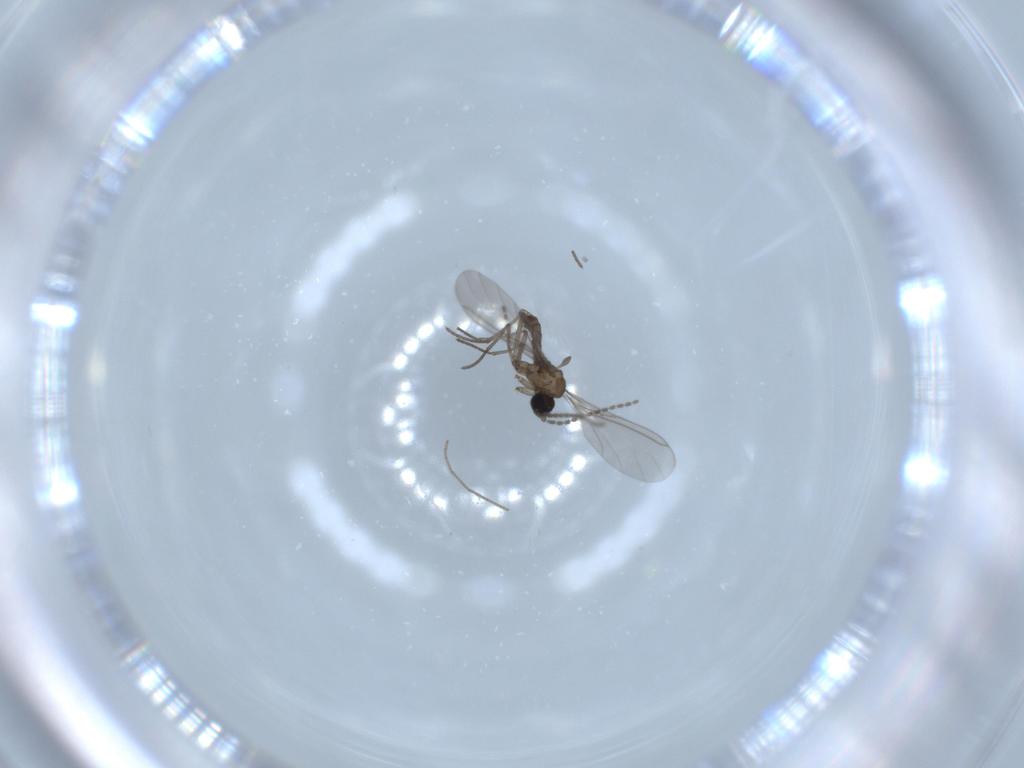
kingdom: Animalia
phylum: Arthropoda
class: Insecta
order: Diptera
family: Sciaridae
